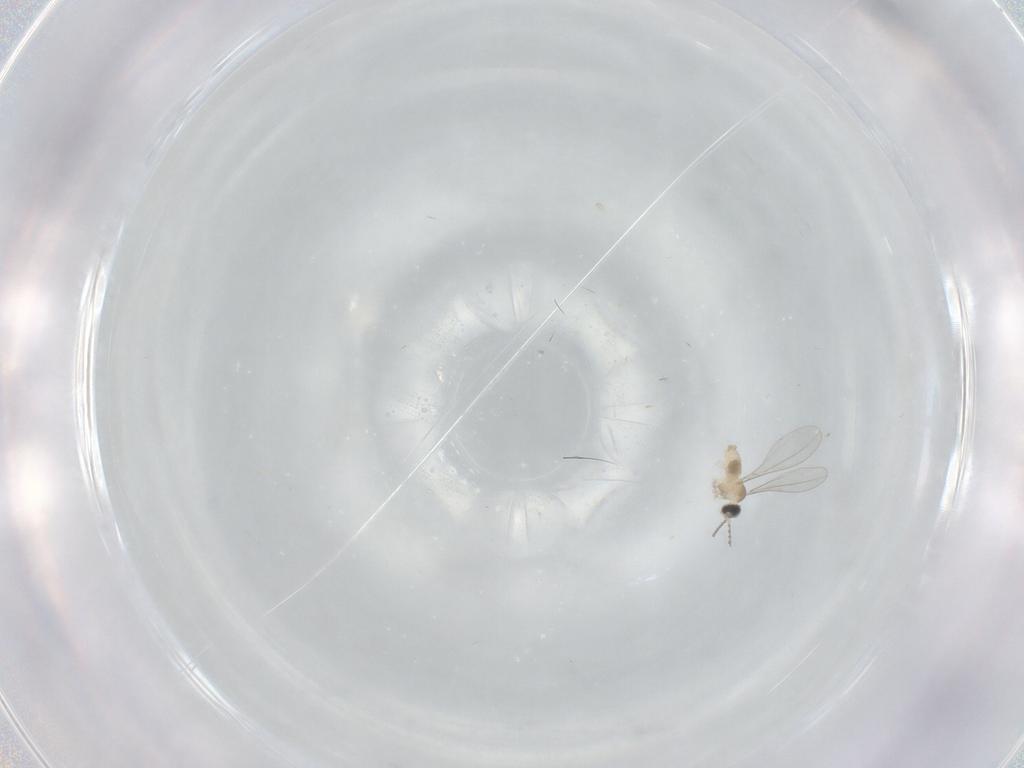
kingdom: Animalia
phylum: Arthropoda
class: Insecta
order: Diptera
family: Cecidomyiidae
